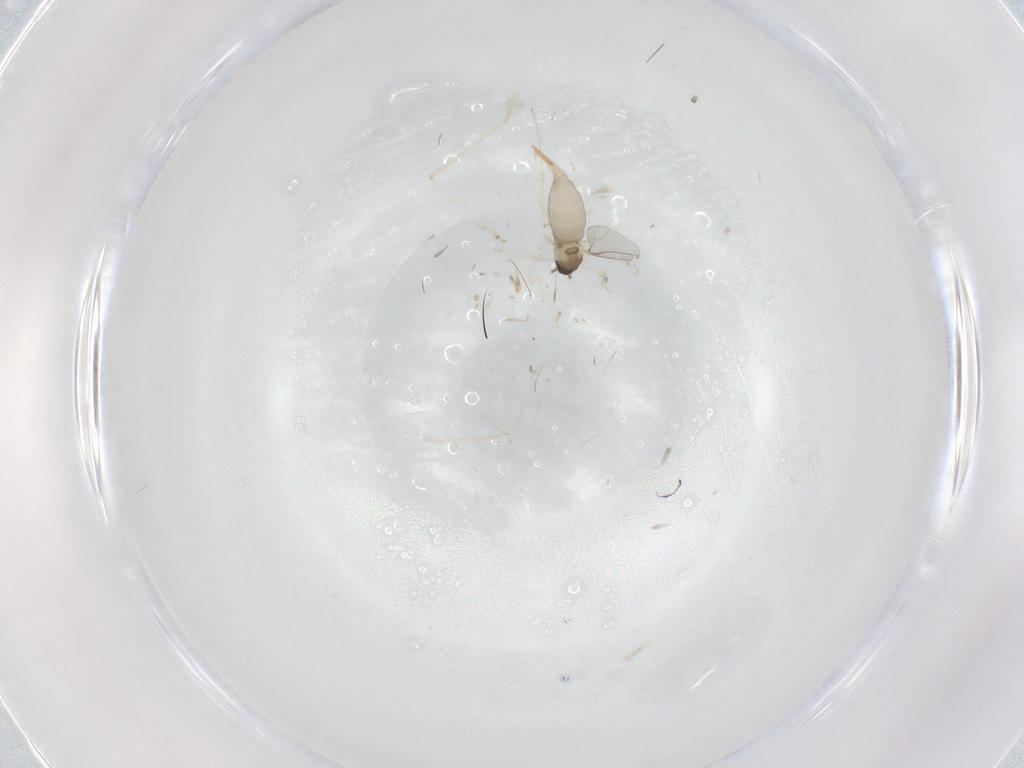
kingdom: Animalia
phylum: Arthropoda
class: Insecta
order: Diptera
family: Cecidomyiidae
